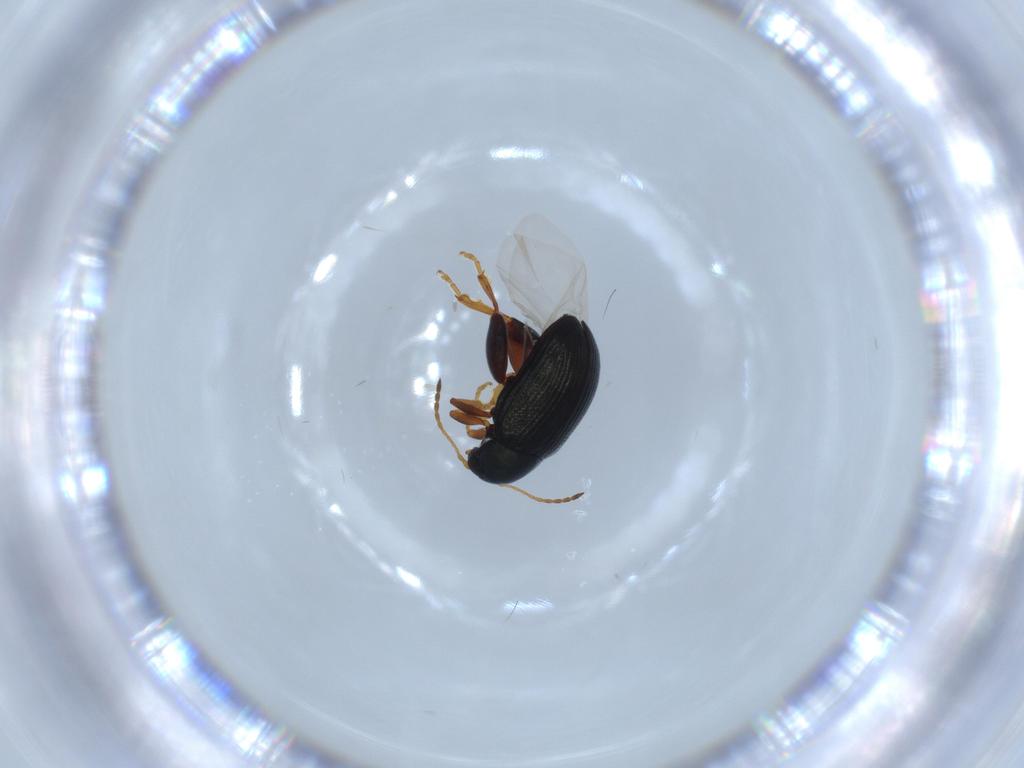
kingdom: Animalia
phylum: Arthropoda
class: Insecta
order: Coleoptera
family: Chrysomelidae
